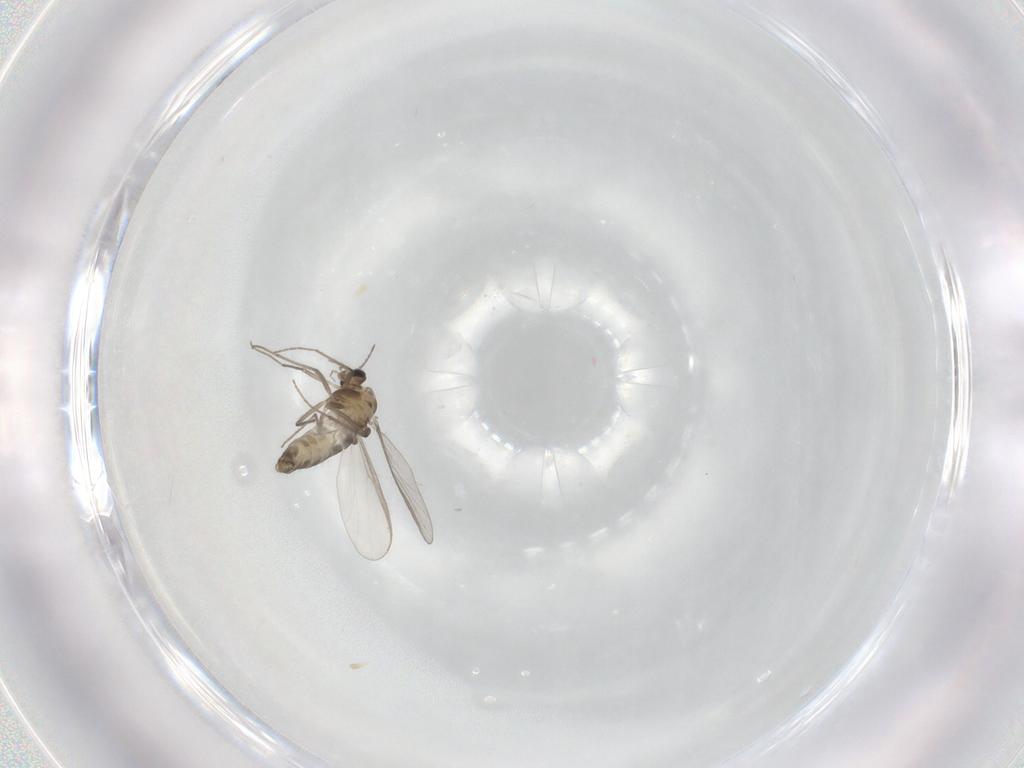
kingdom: Animalia
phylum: Arthropoda
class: Insecta
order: Diptera
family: Chironomidae
